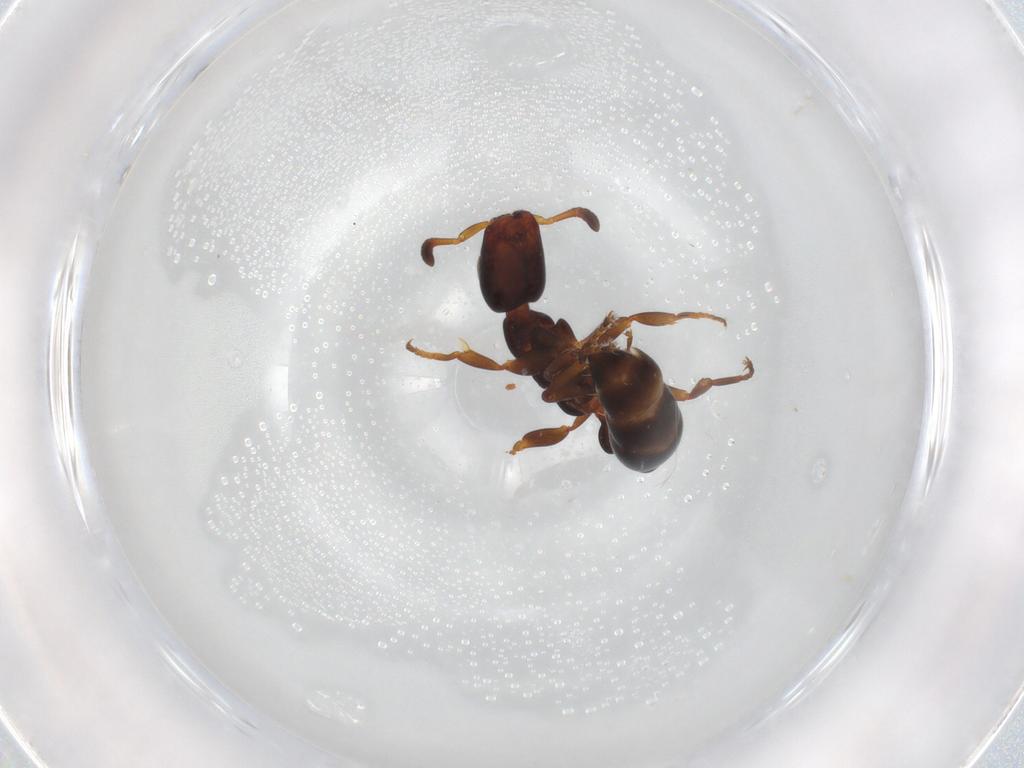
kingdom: Animalia
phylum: Arthropoda
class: Insecta
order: Hymenoptera
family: Formicidae
